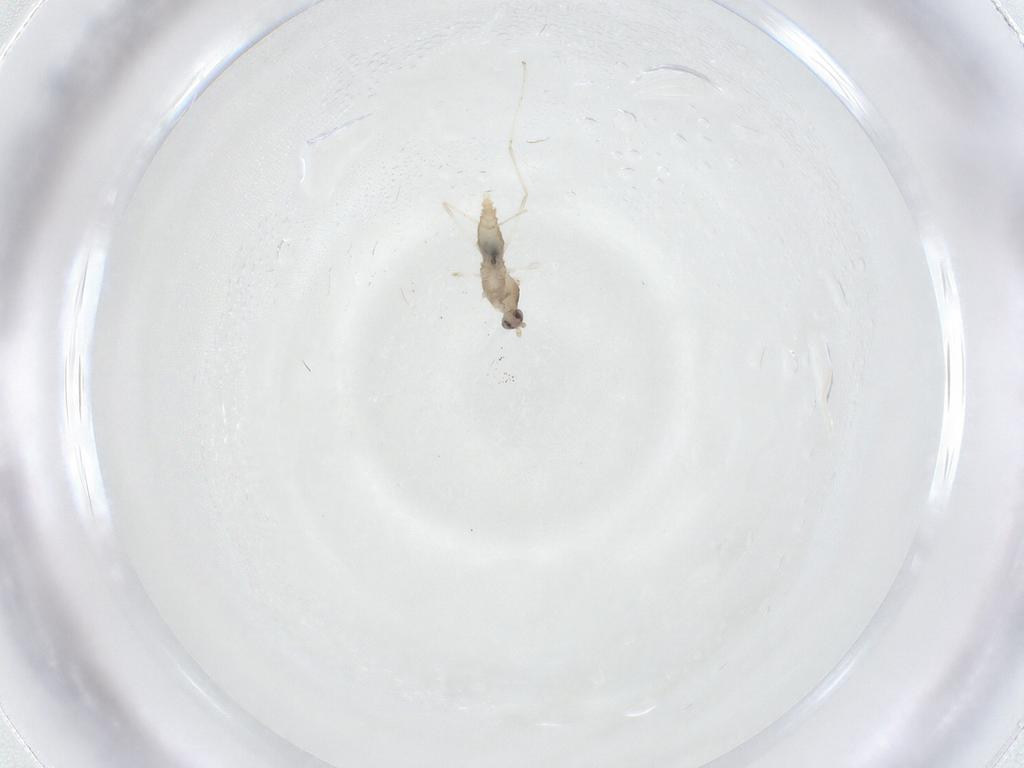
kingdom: Animalia
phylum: Arthropoda
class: Insecta
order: Diptera
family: Cecidomyiidae
